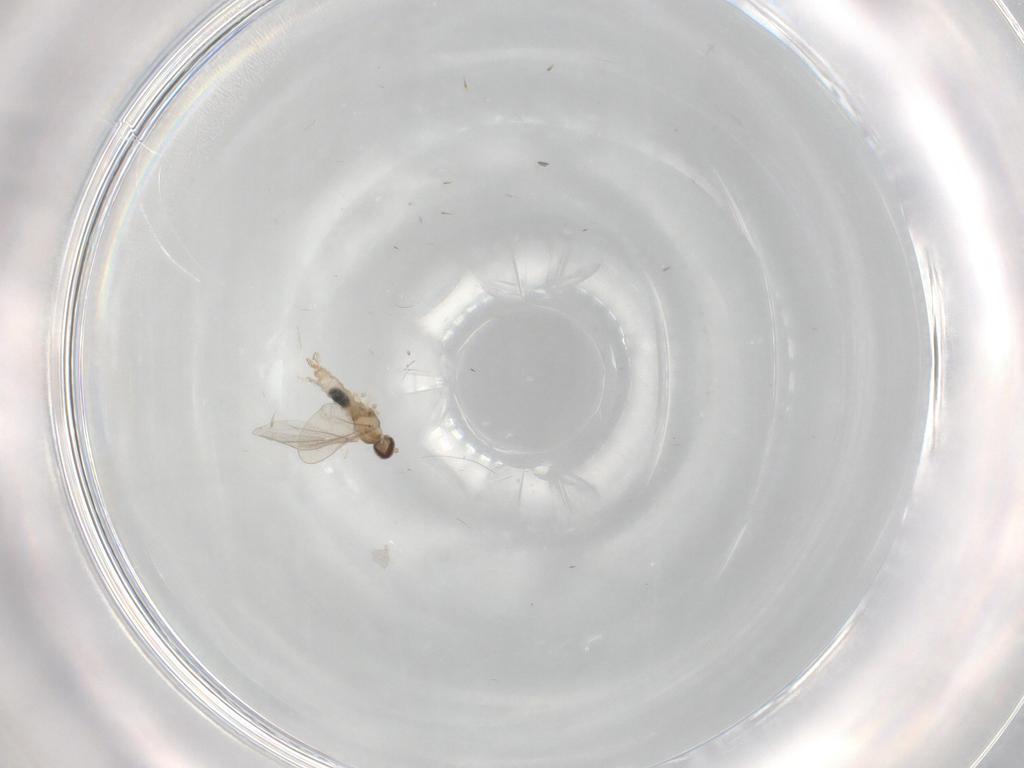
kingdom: Animalia
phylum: Arthropoda
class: Insecta
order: Diptera
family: Cecidomyiidae
